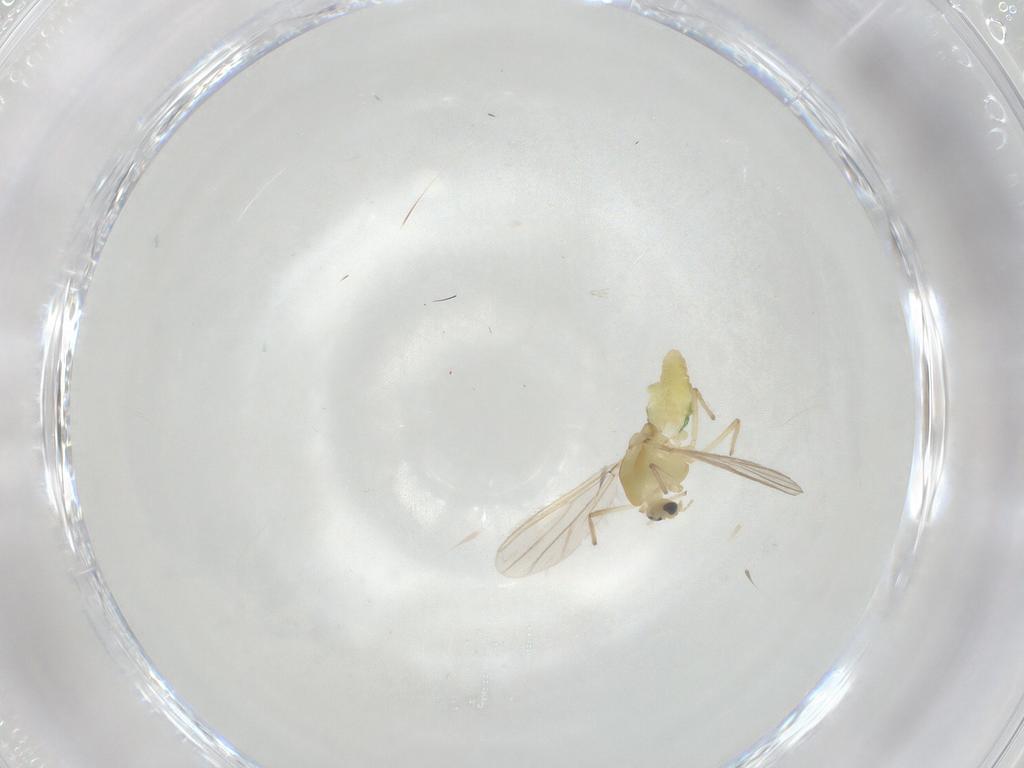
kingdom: Animalia
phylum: Arthropoda
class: Insecta
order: Diptera
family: Chironomidae
